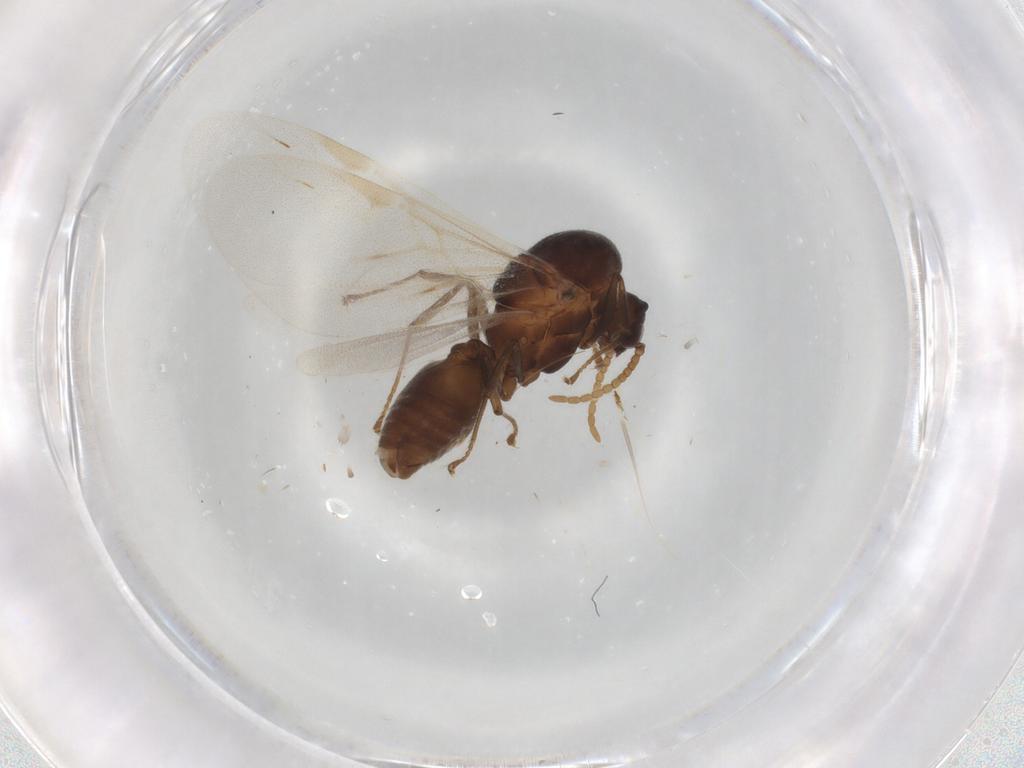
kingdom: Animalia
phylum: Arthropoda
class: Insecta
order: Hymenoptera
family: Formicidae
